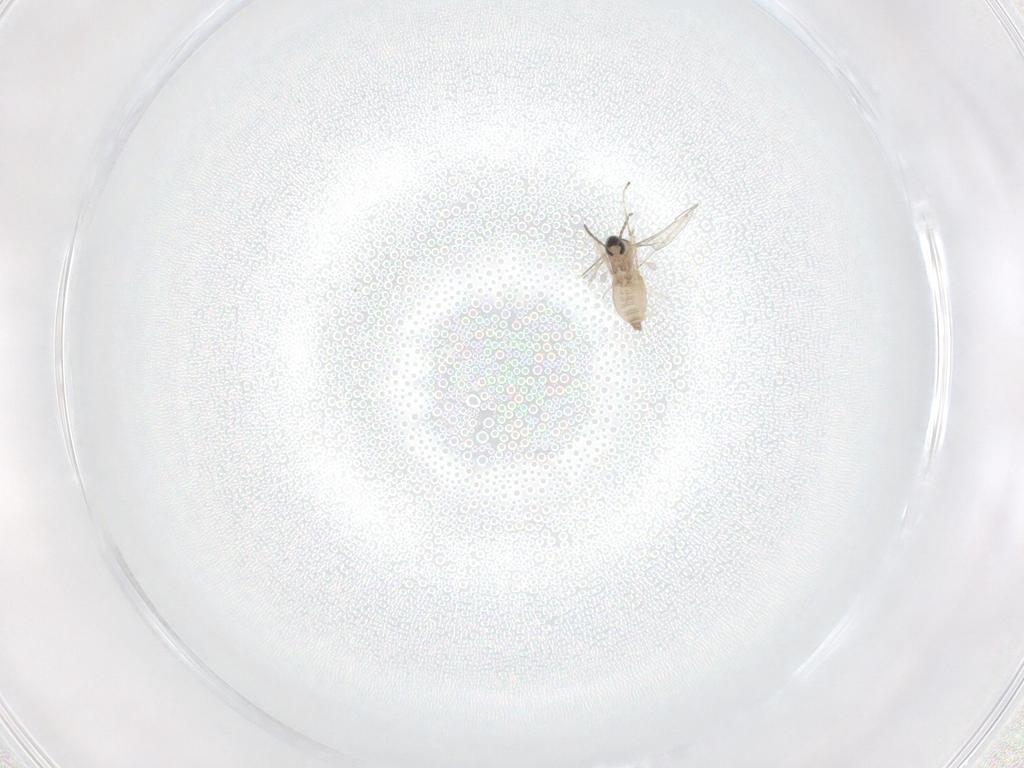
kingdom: Animalia
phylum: Arthropoda
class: Insecta
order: Diptera
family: Cecidomyiidae
